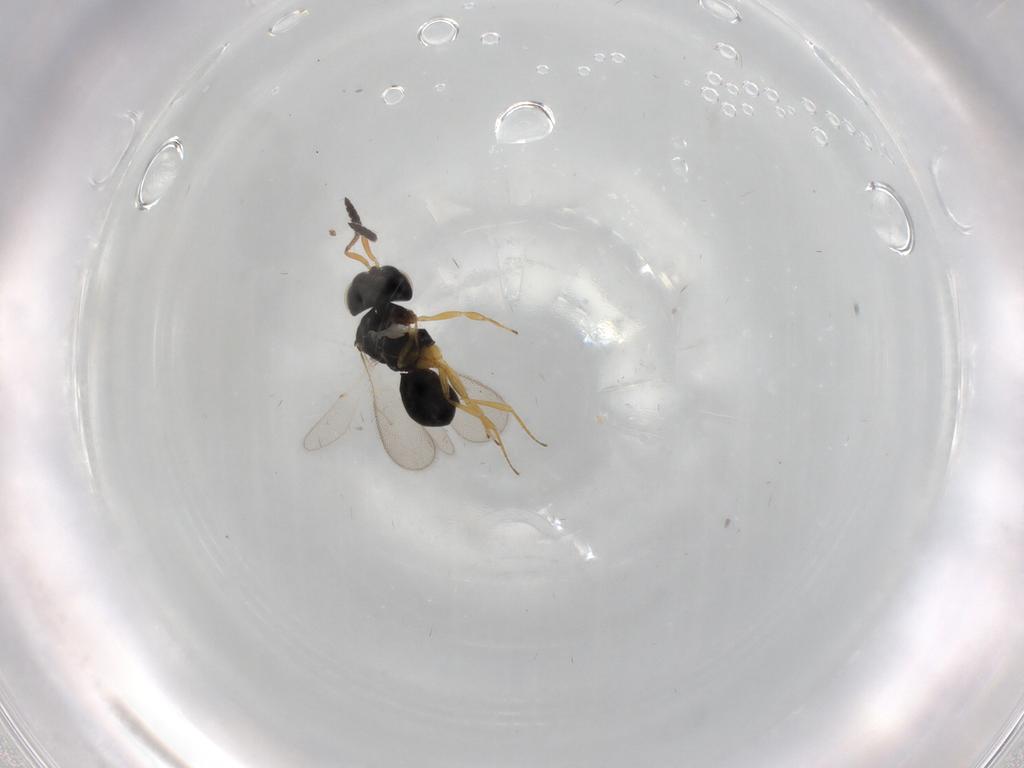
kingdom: Animalia
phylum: Arthropoda
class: Insecta
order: Hymenoptera
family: Scelionidae
